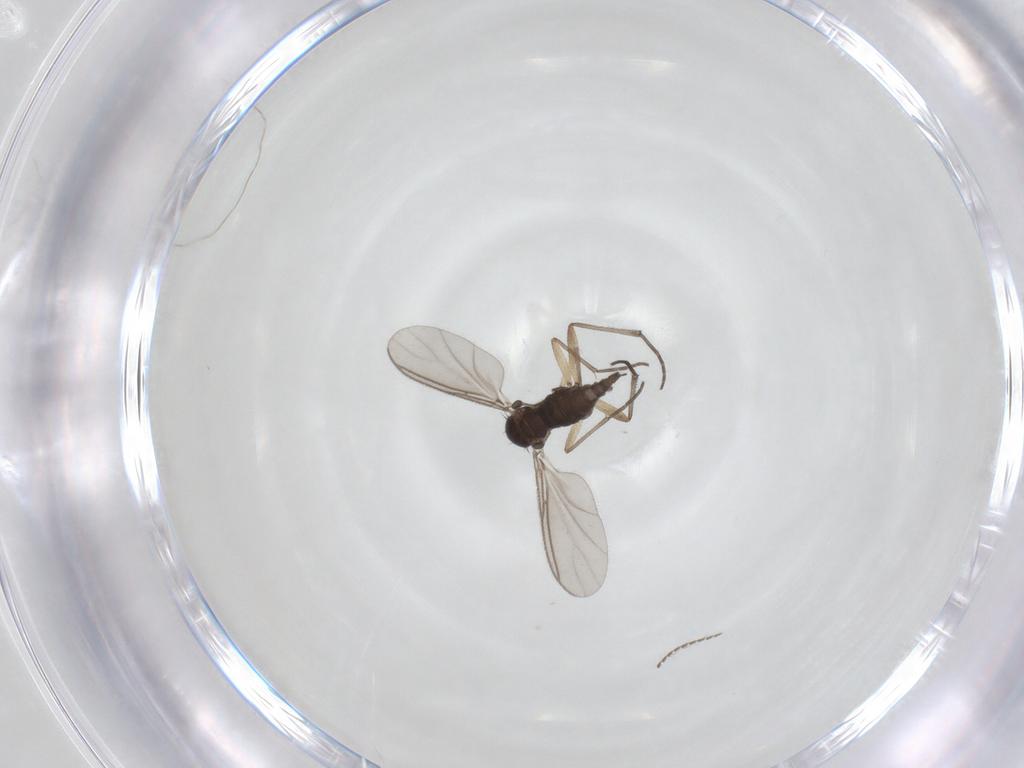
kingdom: Animalia
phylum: Arthropoda
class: Insecta
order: Diptera
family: Sciaridae
